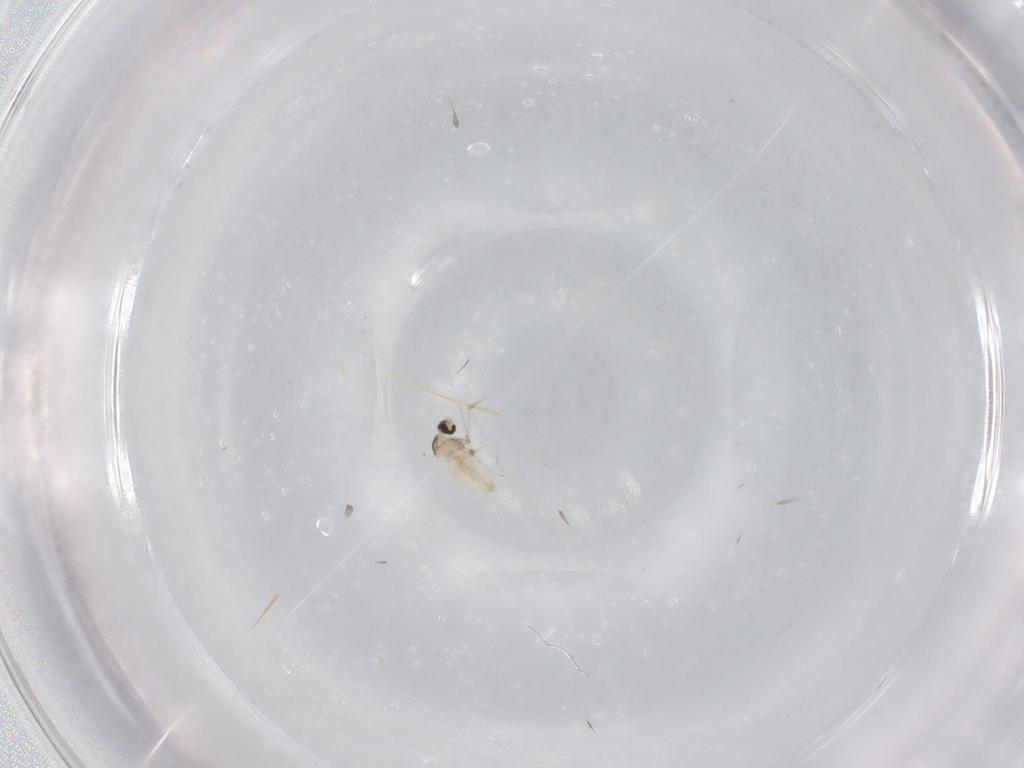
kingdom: Animalia
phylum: Arthropoda
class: Insecta
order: Diptera
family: Cecidomyiidae
